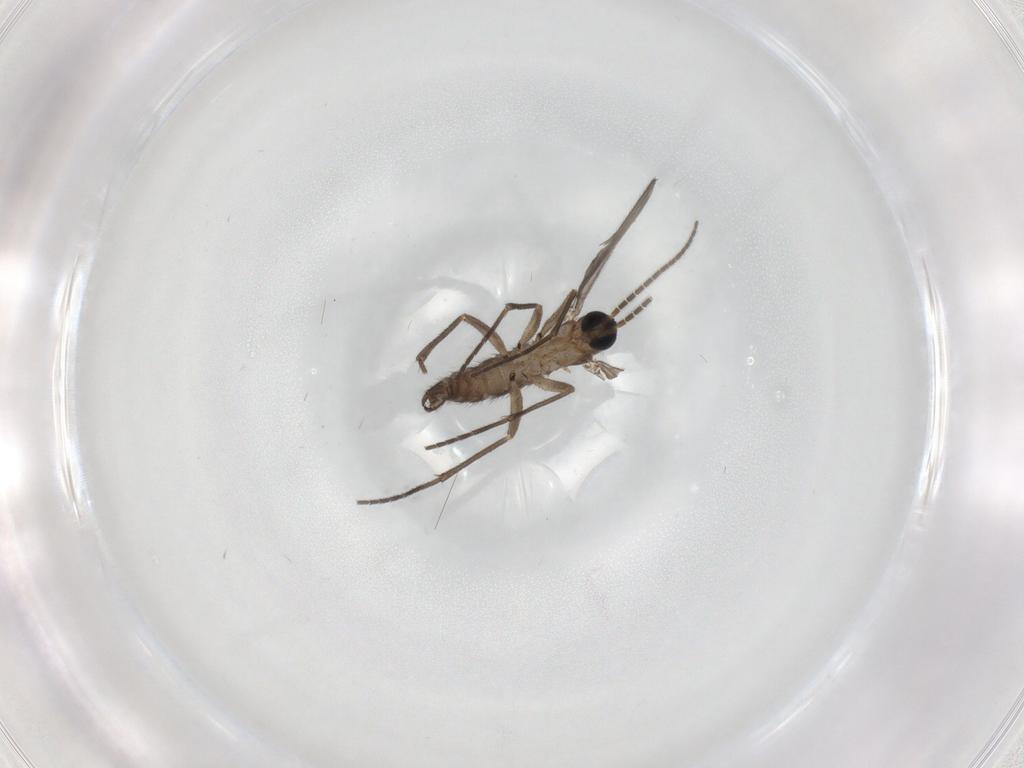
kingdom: Animalia
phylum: Arthropoda
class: Insecta
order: Diptera
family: Sciaridae
